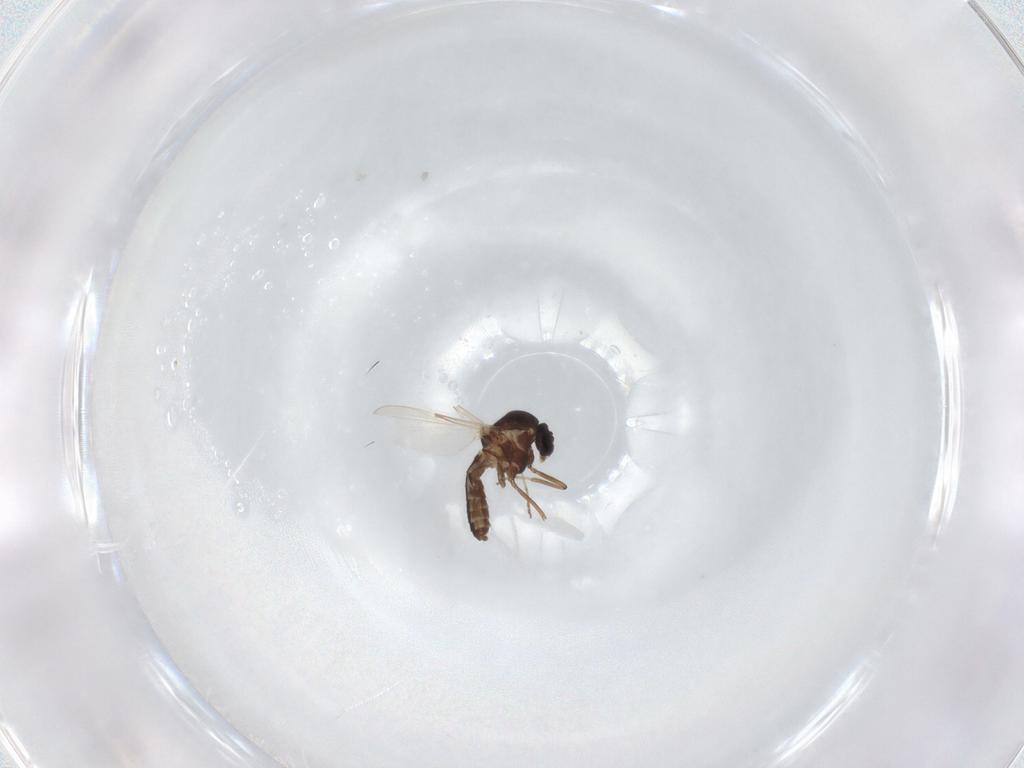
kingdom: Animalia
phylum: Arthropoda
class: Insecta
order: Diptera
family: Ceratopogonidae
